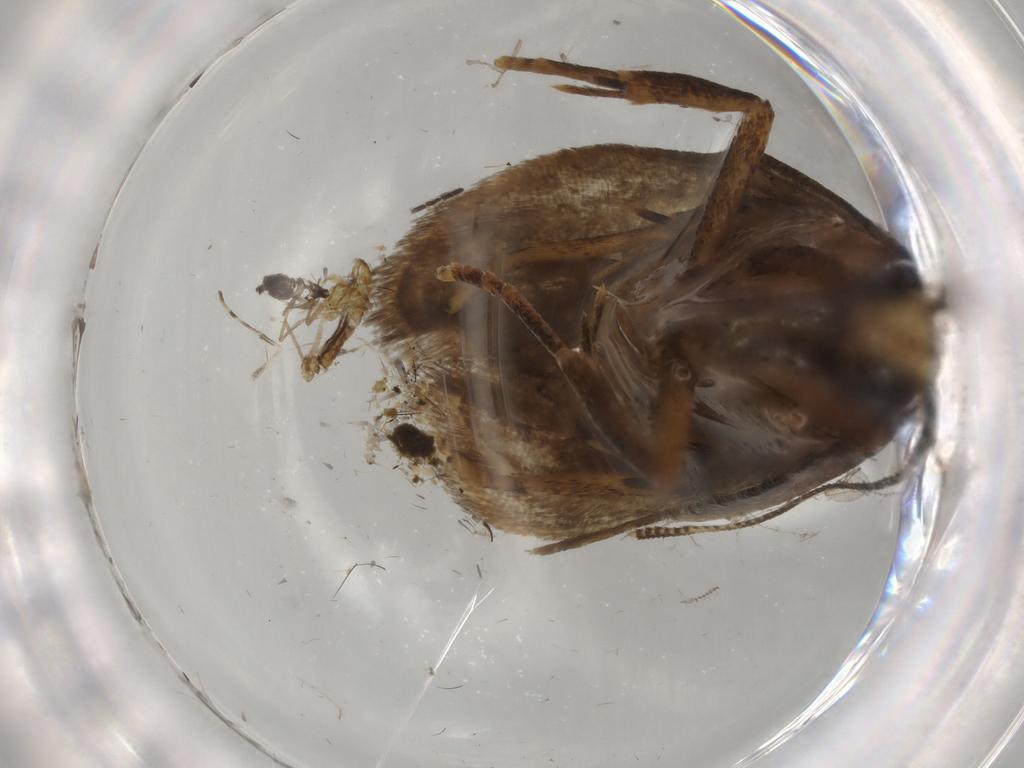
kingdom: Animalia
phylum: Arthropoda
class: Insecta
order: Lepidoptera
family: Autostichidae
